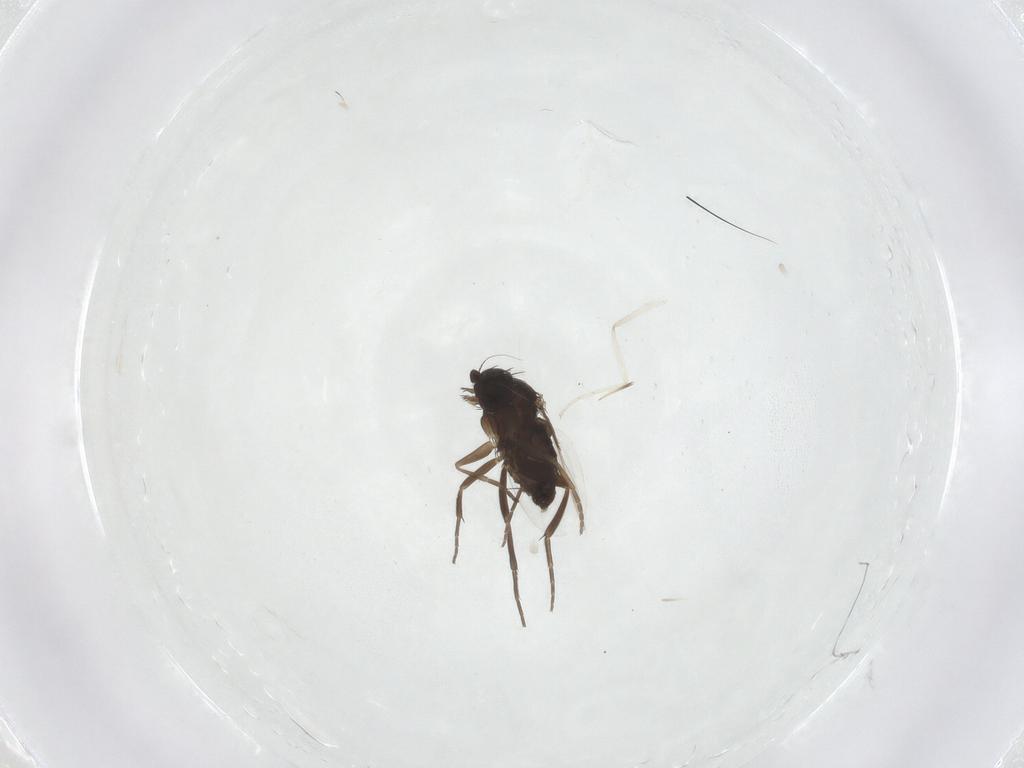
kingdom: Animalia
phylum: Arthropoda
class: Insecta
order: Diptera
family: Phoridae
